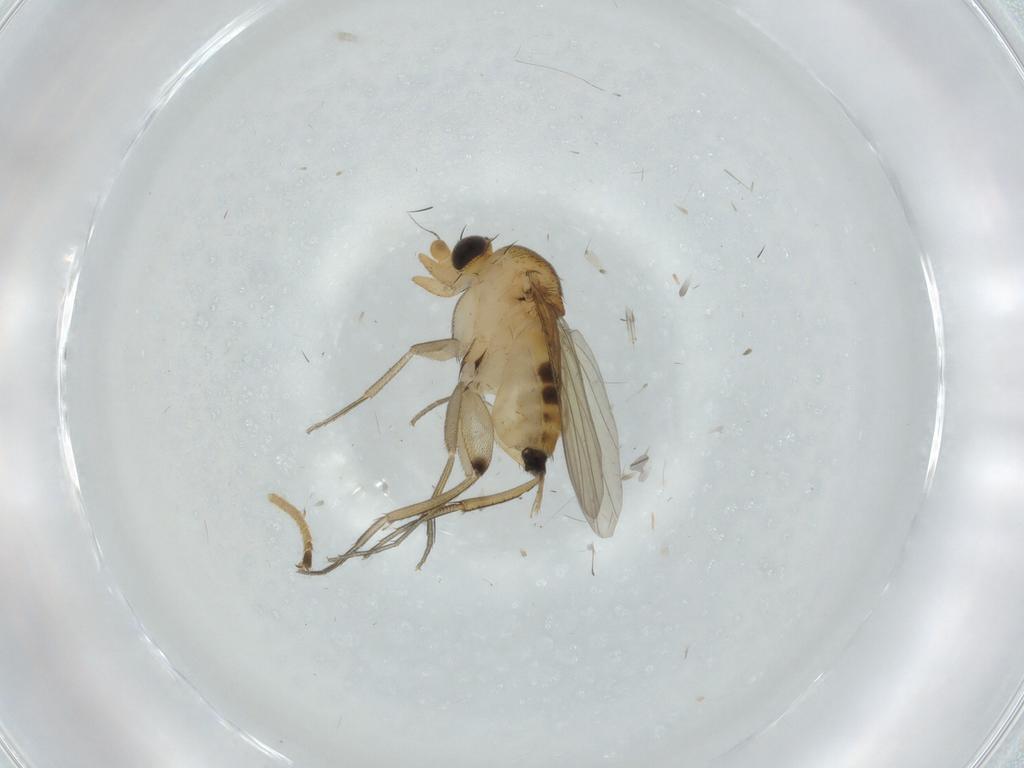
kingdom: Animalia
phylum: Arthropoda
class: Insecta
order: Diptera
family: Phoridae
